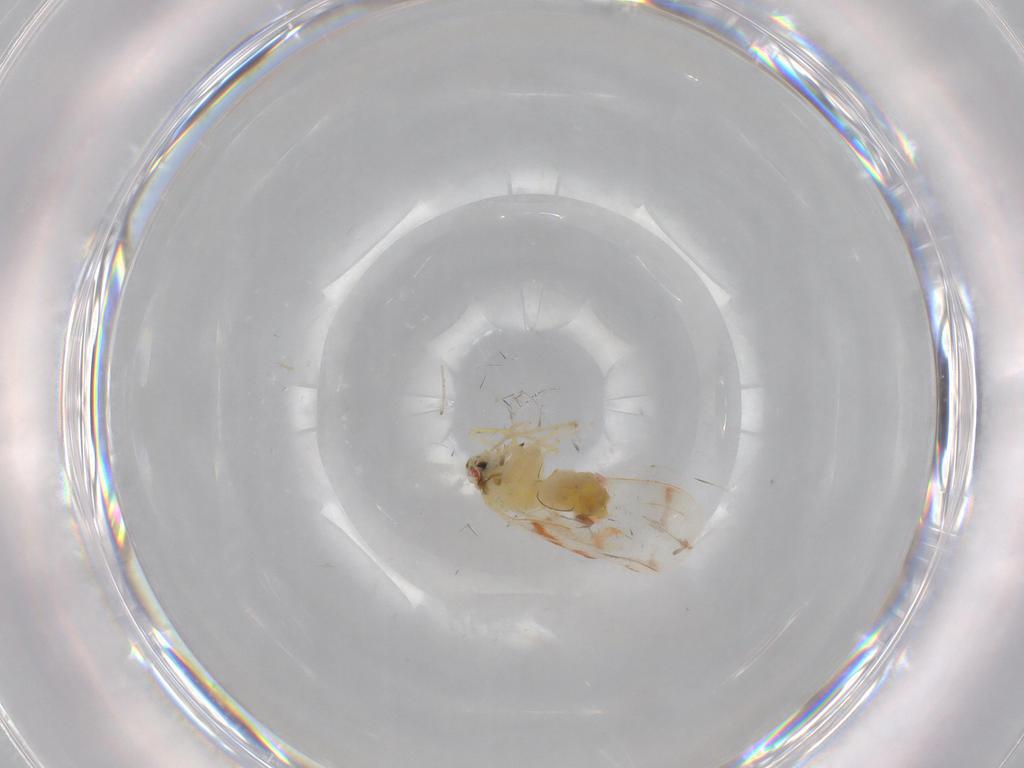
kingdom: Animalia
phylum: Arthropoda
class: Insecta
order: Hemiptera
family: Aleyrodidae
